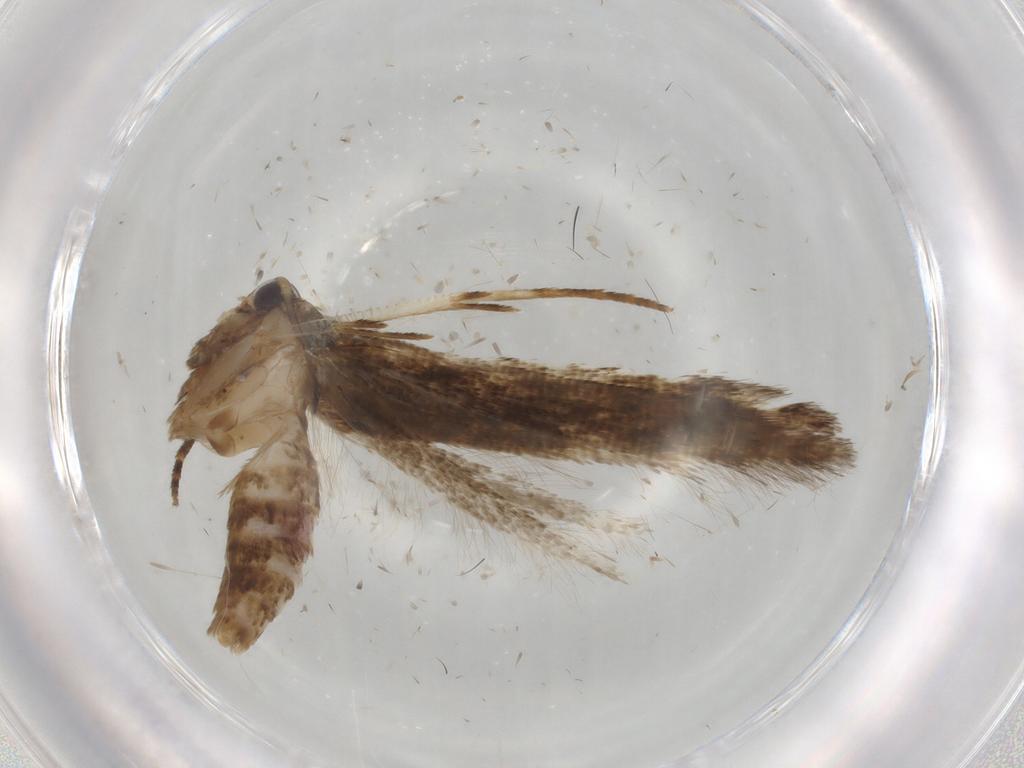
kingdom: Animalia
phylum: Arthropoda
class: Insecta
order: Lepidoptera
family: Cosmopterigidae
